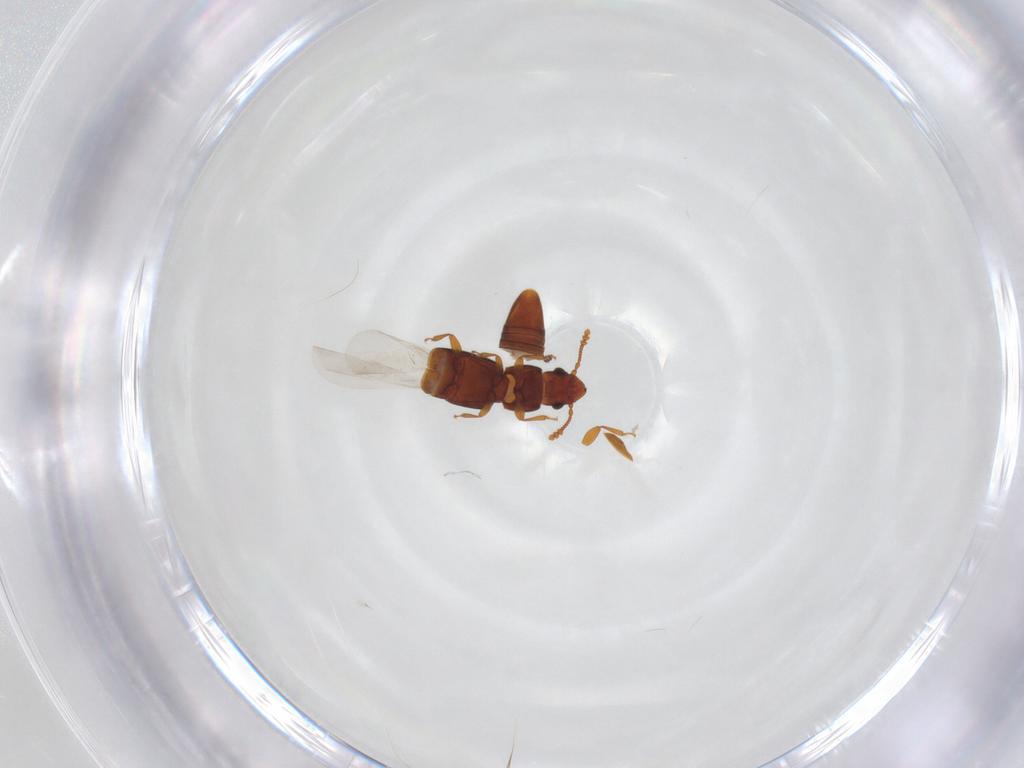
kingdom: Animalia
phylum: Arthropoda
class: Insecta
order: Coleoptera
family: Smicripidae
